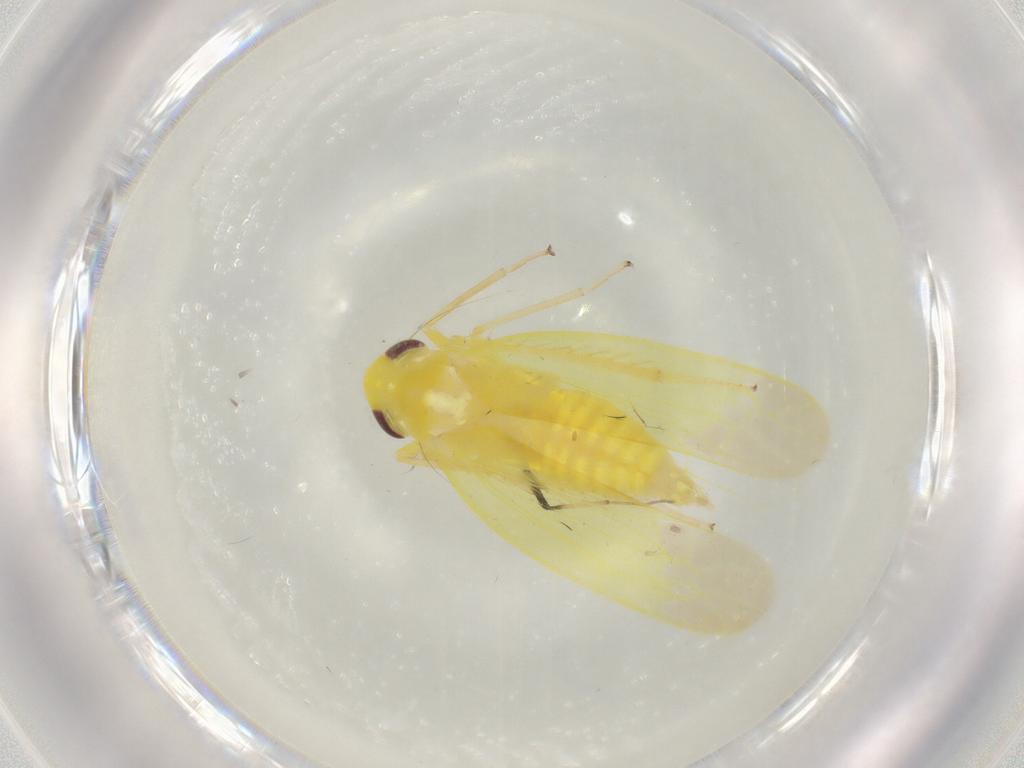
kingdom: Animalia
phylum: Arthropoda
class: Insecta
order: Hemiptera
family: Cicadellidae
